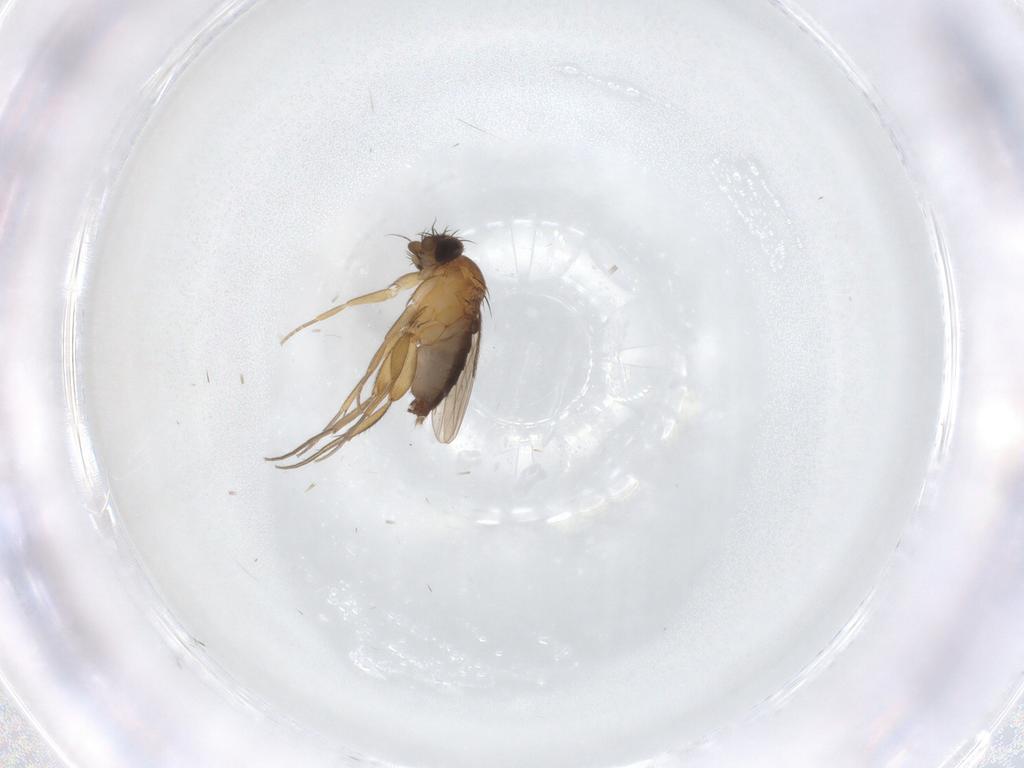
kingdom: Animalia
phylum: Arthropoda
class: Insecta
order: Diptera
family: Phoridae
